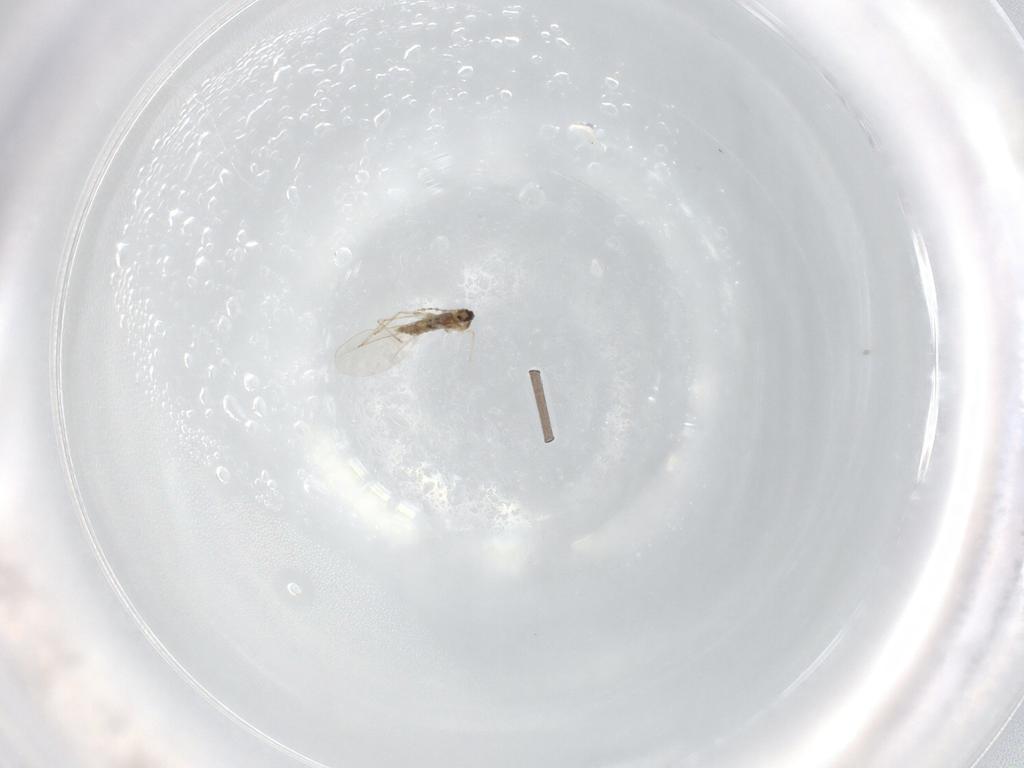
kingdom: Animalia
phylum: Arthropoda
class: Insecta
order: Diptera
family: Cecidomyiidae
